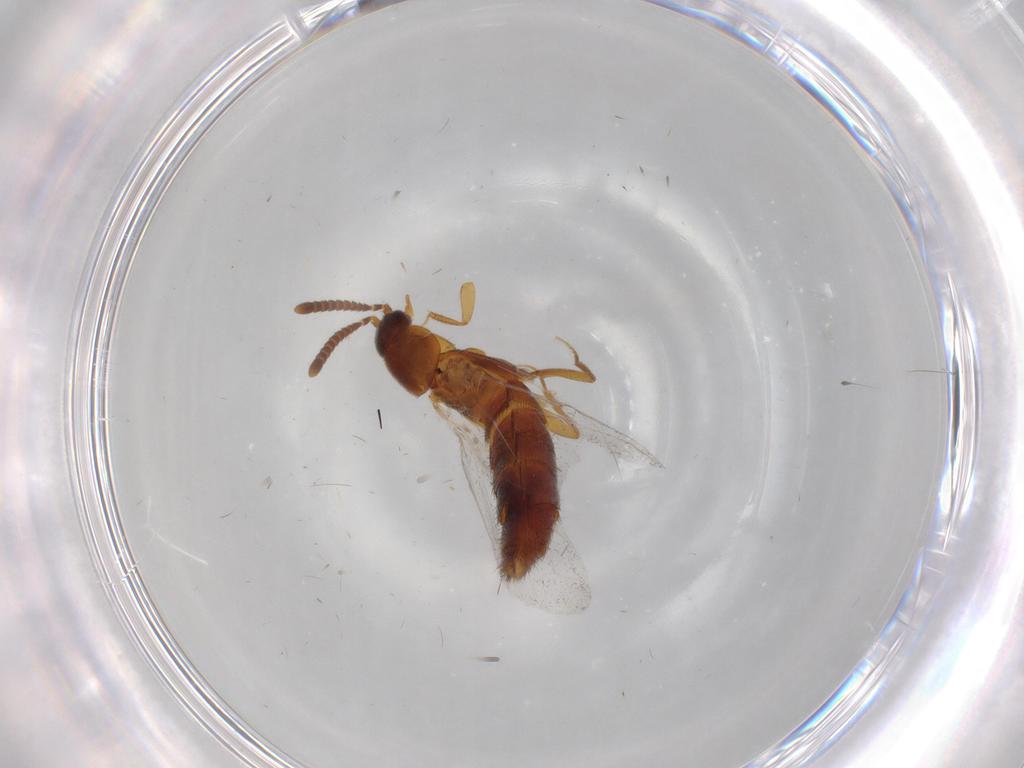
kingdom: Animalia
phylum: Arthropoda
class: Insecta
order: Coleoptera
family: Staphylinidae
